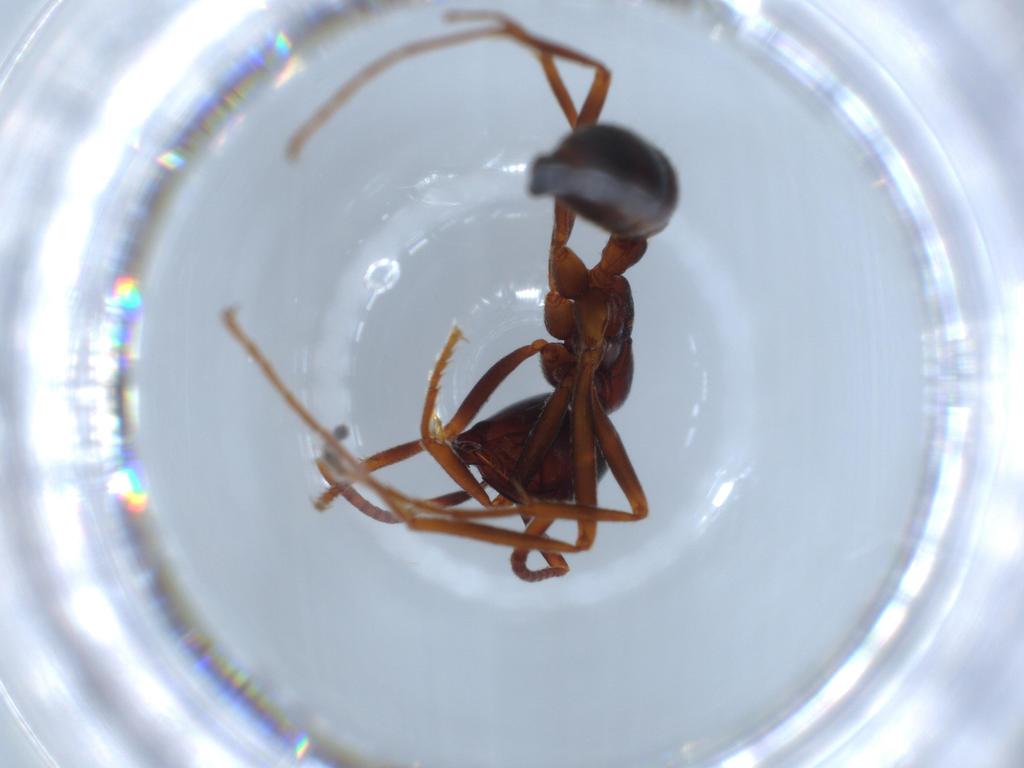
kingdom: Animalia
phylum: Arthropoda
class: Insecta
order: Hymenoptera
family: Formicidae
